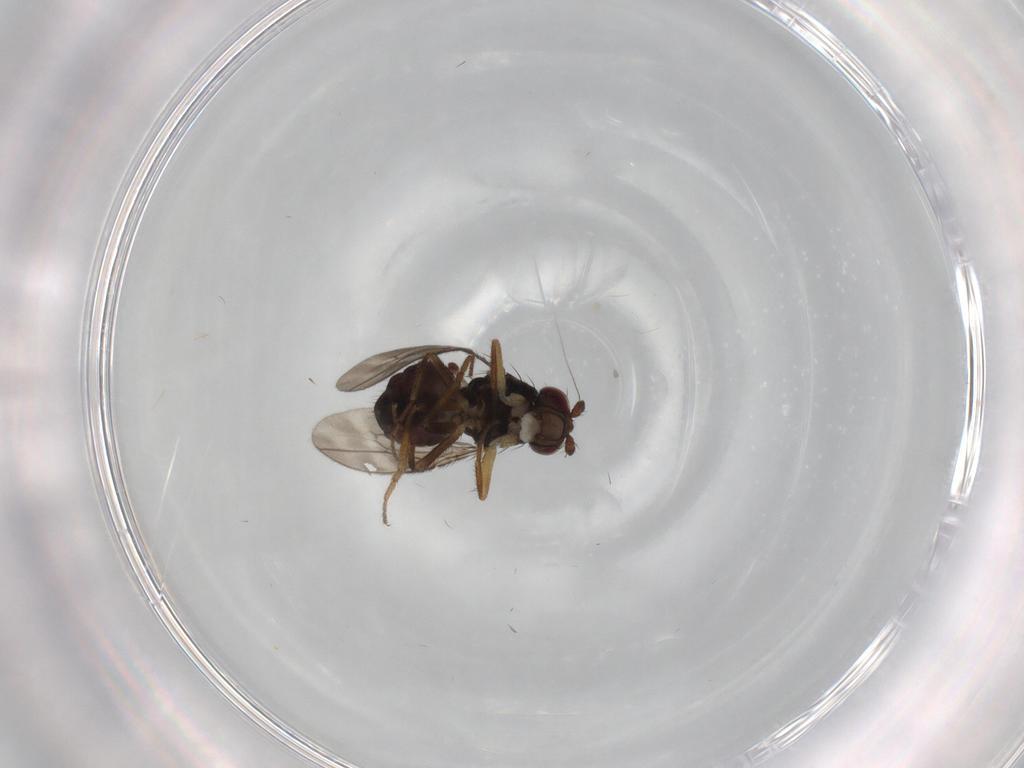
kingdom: Animalia
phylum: Arthropoda
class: Insecta
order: Diptera
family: Sphaeroceridae
